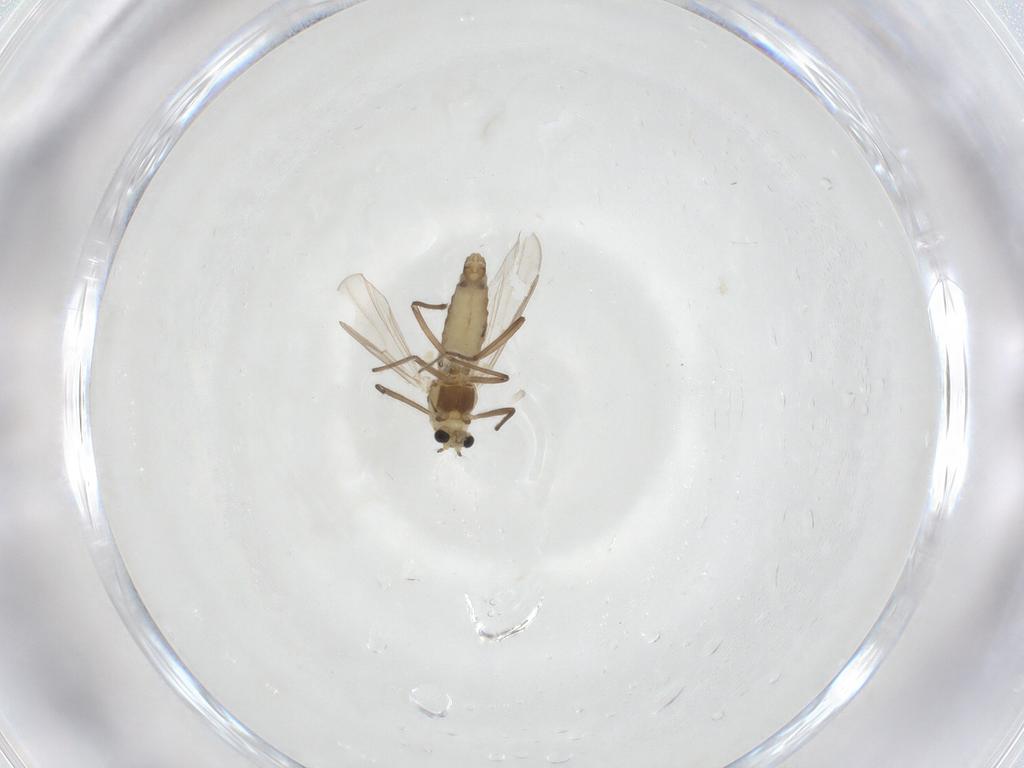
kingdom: Animalia
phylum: Arthropoda
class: Insecta
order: Diptera
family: Chironomidae
